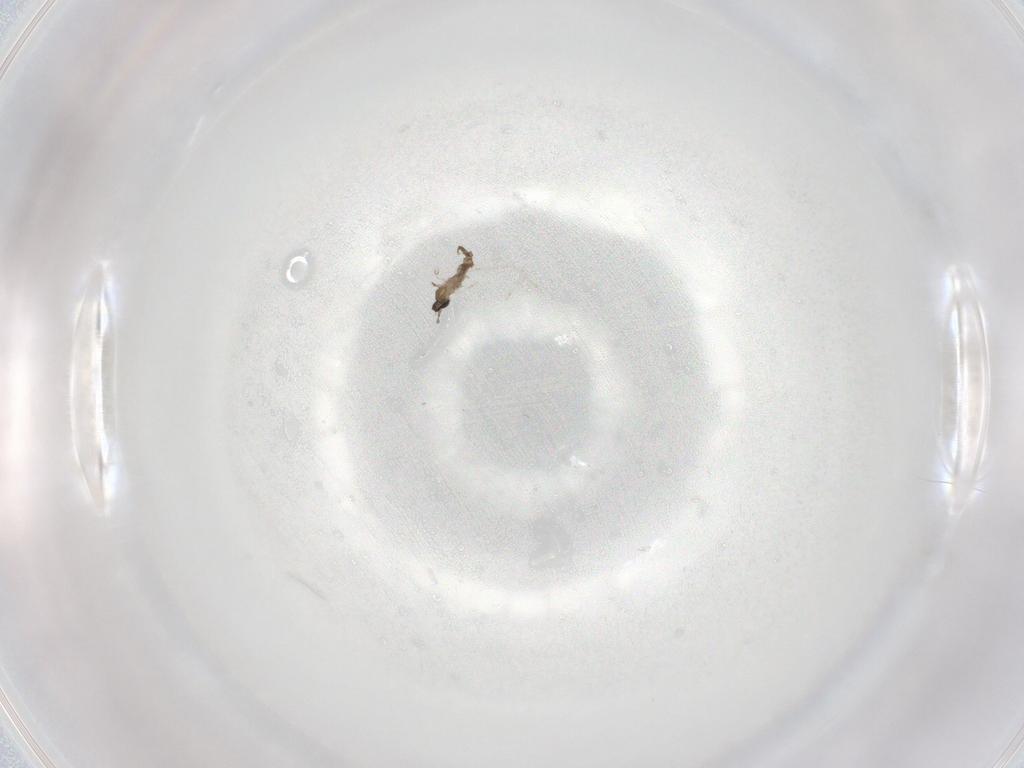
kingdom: Animalia
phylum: Arthropoda
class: Insecta
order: Diptera
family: Cecidomyiidae
